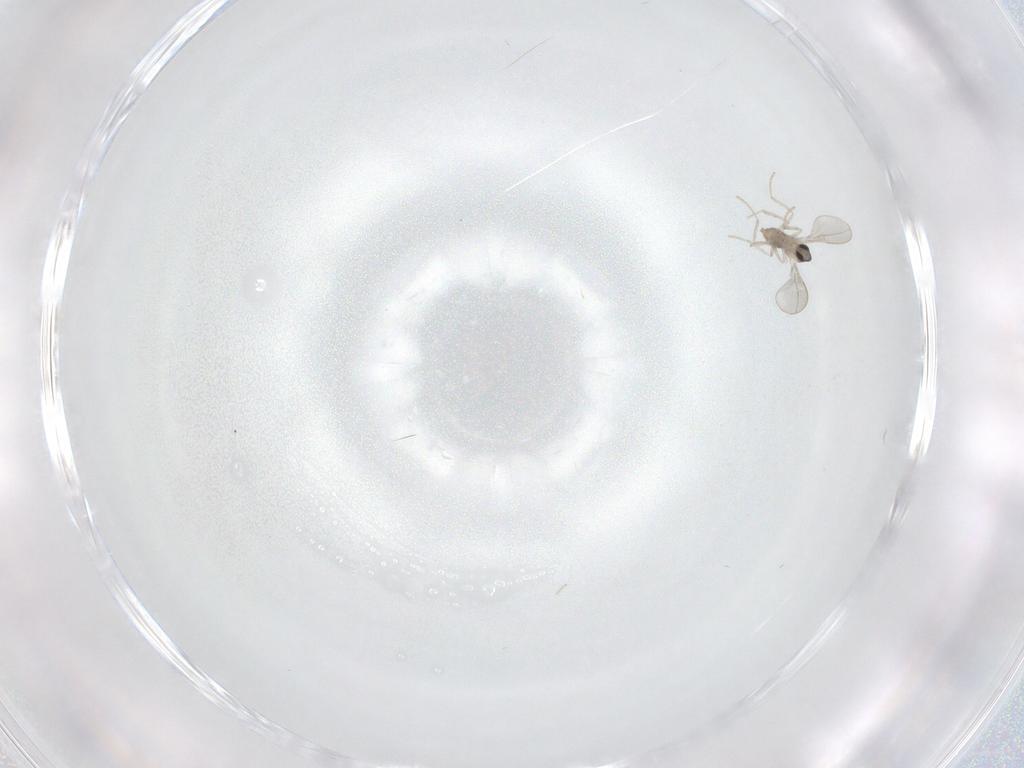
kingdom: Animalia
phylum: Arthropoda
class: Insecta
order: Diptera
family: Cecidomyiidae
